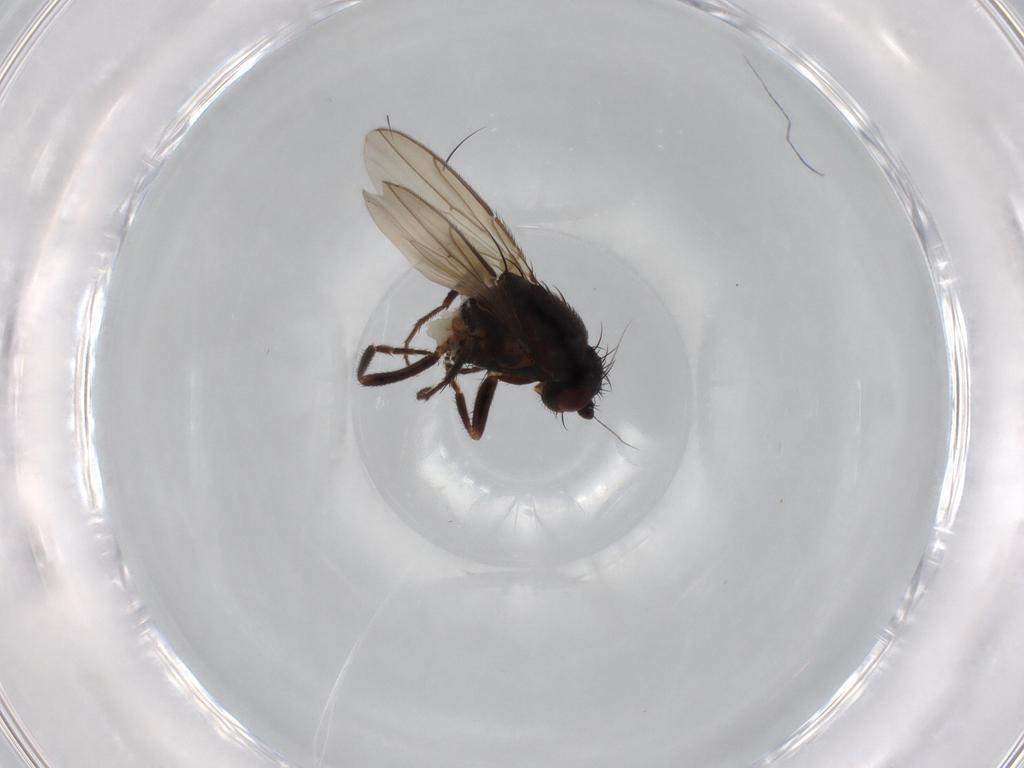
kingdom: Animalia
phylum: Arthropoda
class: Insecta
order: Diptera
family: Sphaeroceridae
